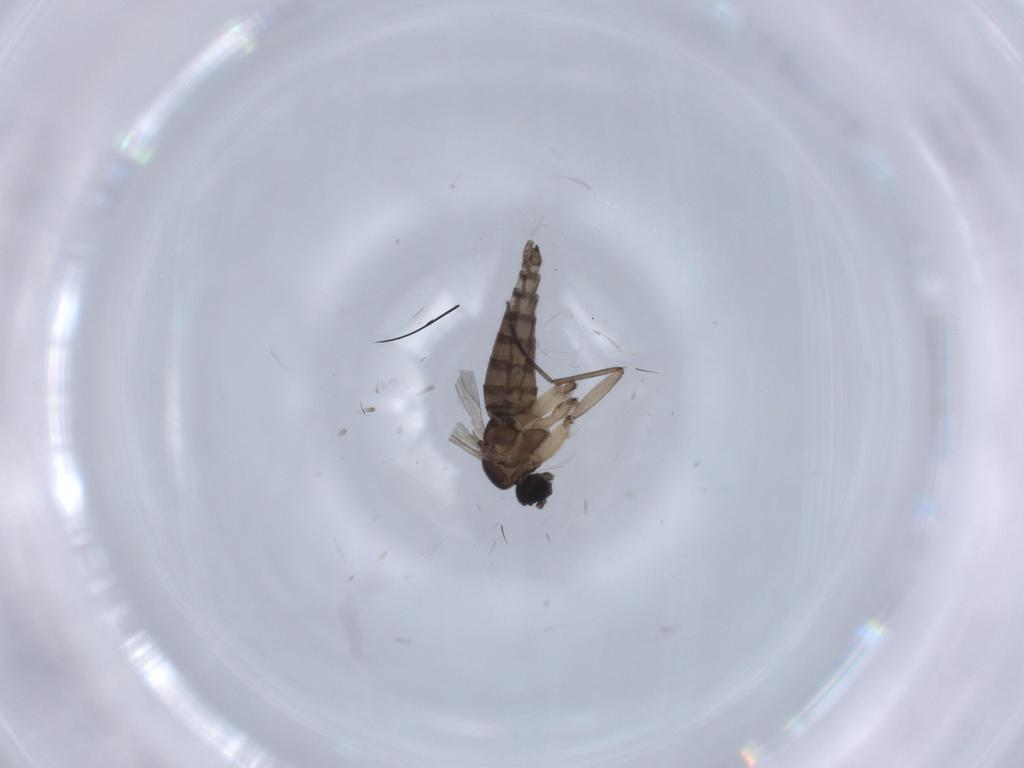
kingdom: Animalia
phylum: Arthropoda
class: Insecta
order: Diptera
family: Sciaridae
